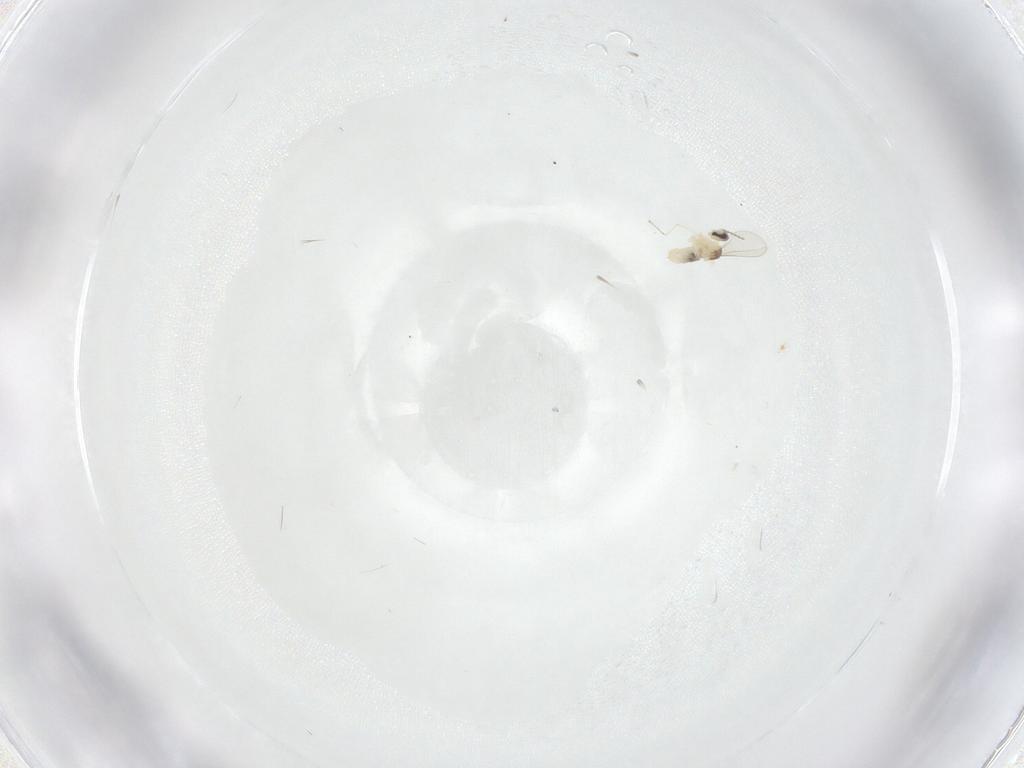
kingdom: Animalia
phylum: Arthropoda
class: Insecta
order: Diptera
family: Cecidomyiidae
